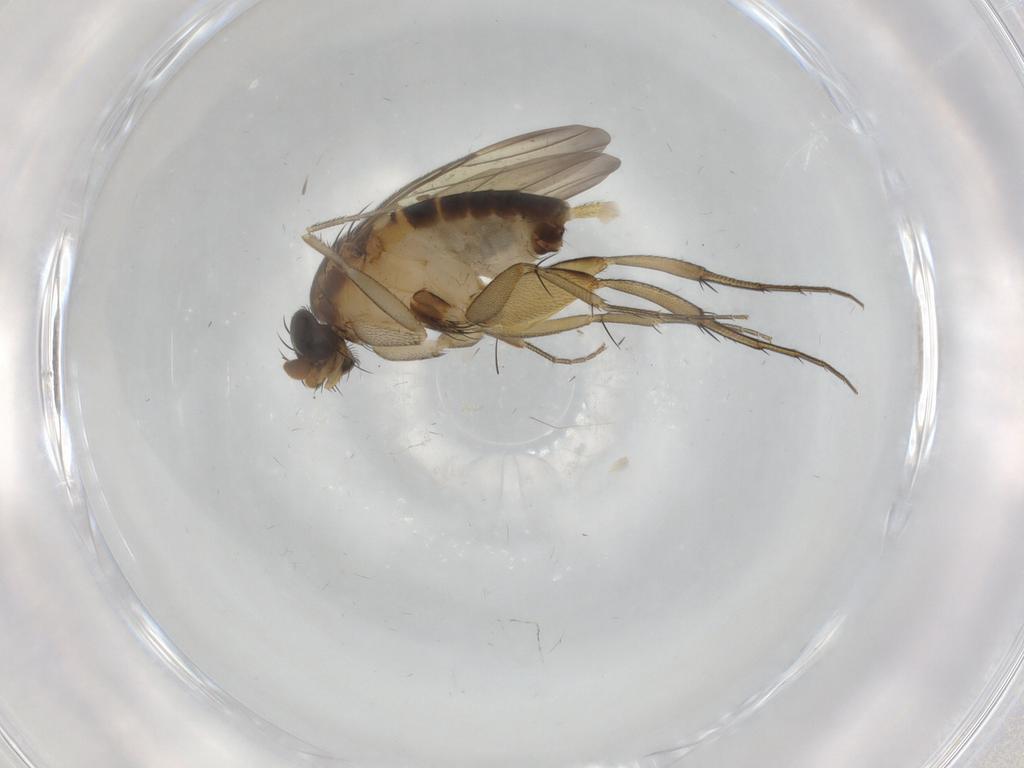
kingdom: Animalia
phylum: Arthropoda
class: Insecta
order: Diptera
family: Phoridae
